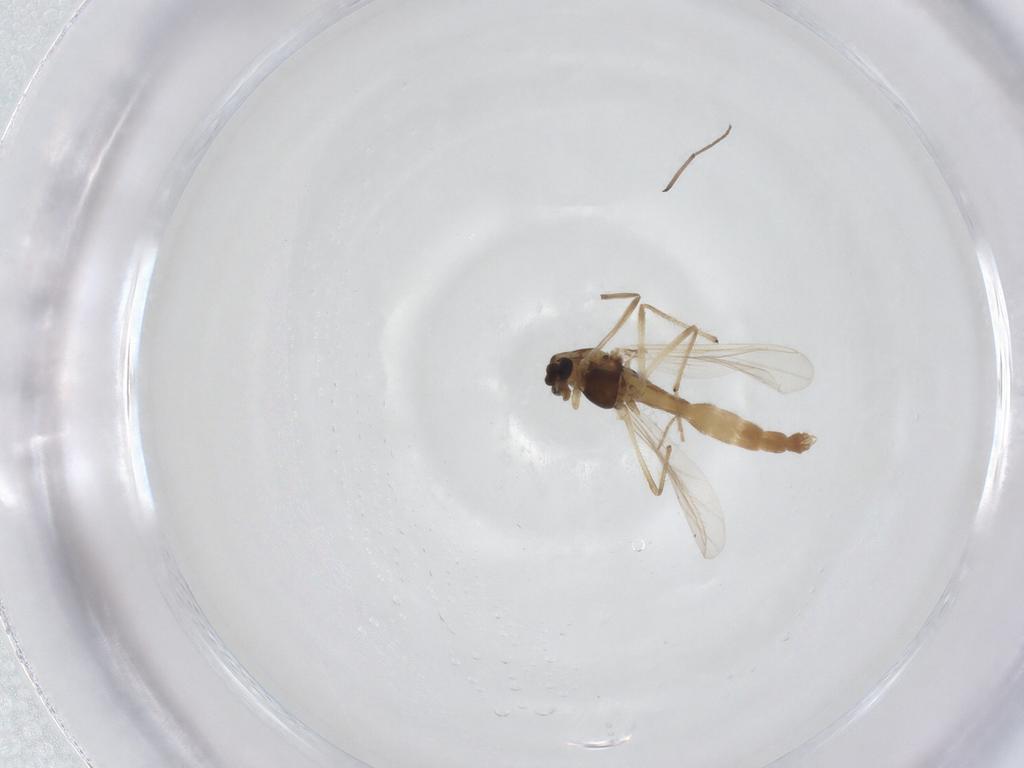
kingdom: Animalia
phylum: Arthropoda
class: Insecta
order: Diptera
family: Chironomidae
